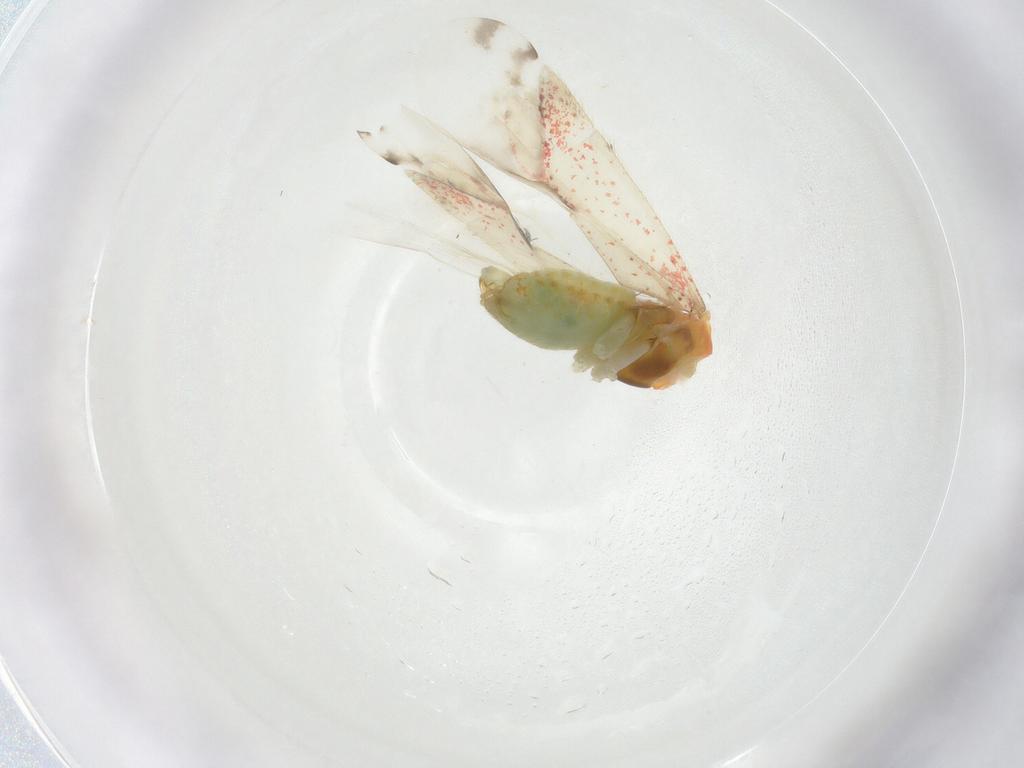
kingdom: Animalia
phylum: Arthropoda
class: Insecta
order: Hemiptera
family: Miridae
